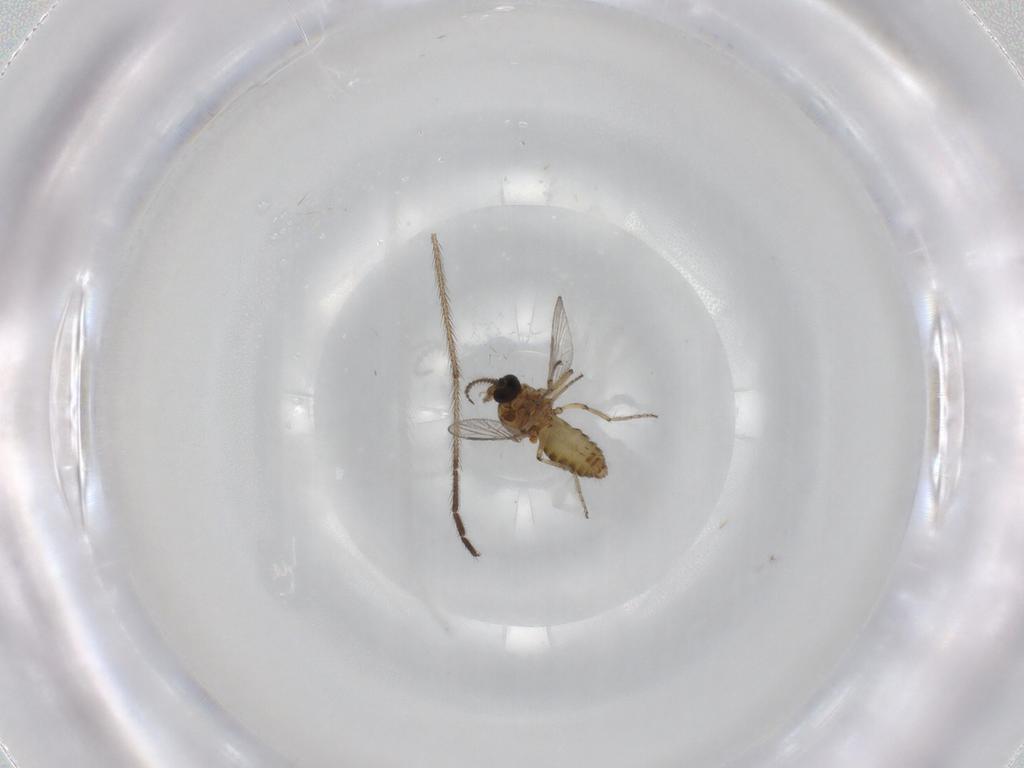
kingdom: Animalia
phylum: Arthropoda
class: Insecta
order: Diptera
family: Ceratopogonidae
